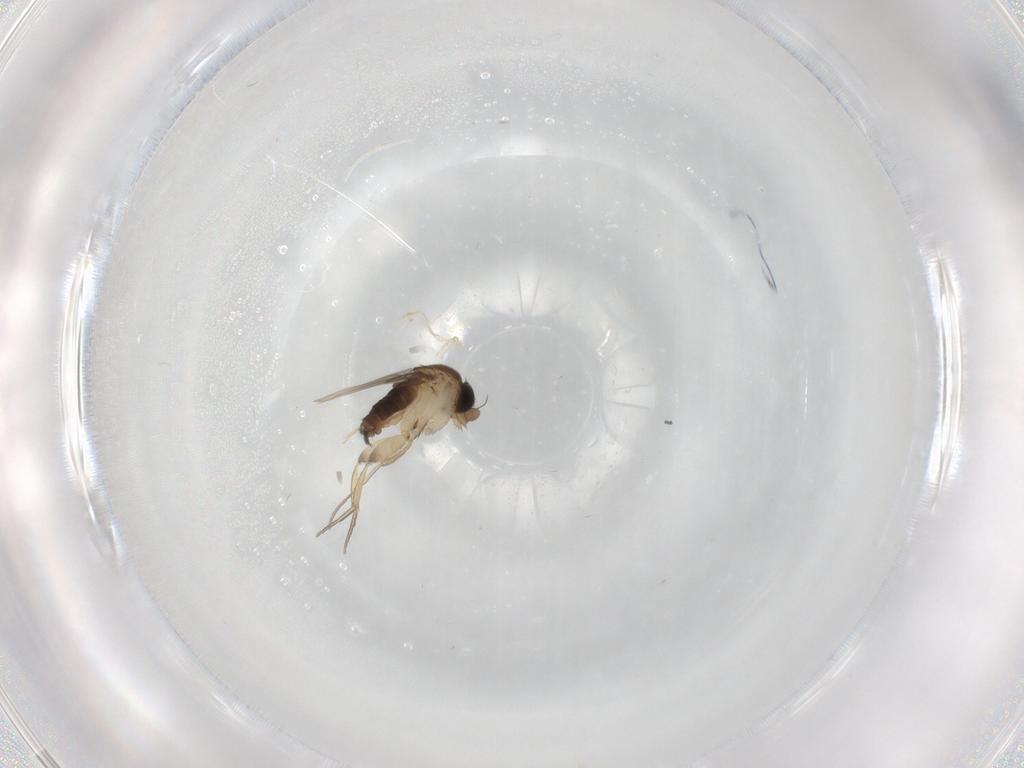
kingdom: Animalia
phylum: Arthropoda
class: Insecta
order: Diptera
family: Phoridae
